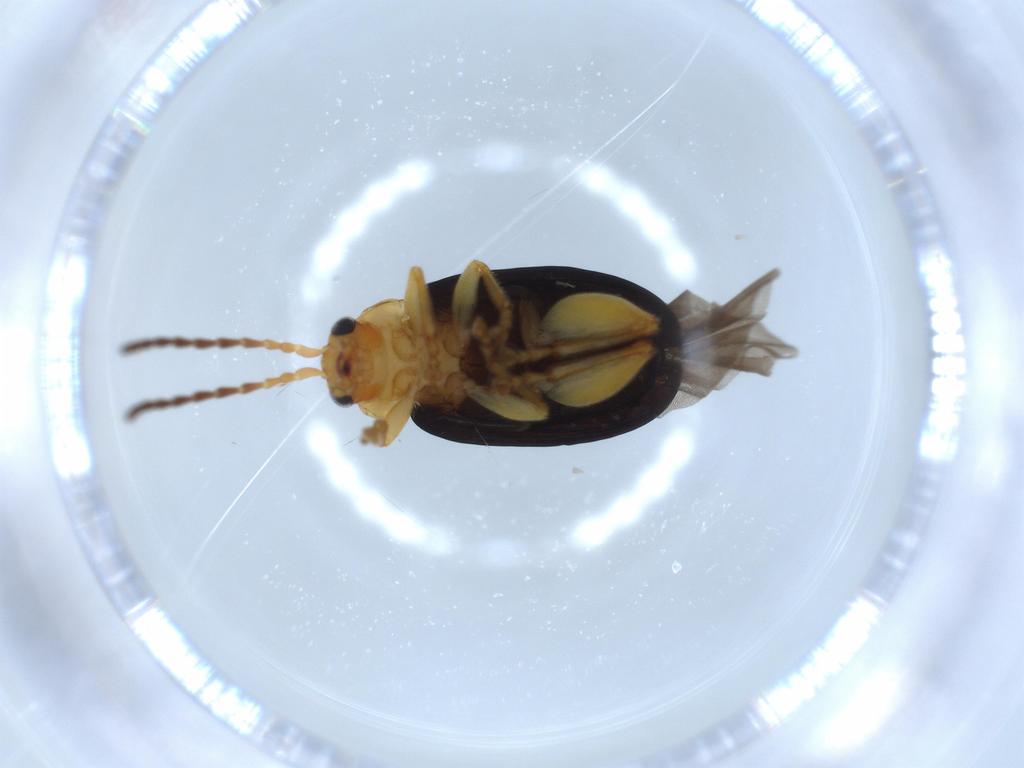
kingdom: Animalia
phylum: Arthropoda
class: Insecta
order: Coleoptera
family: Chrysomelidae
